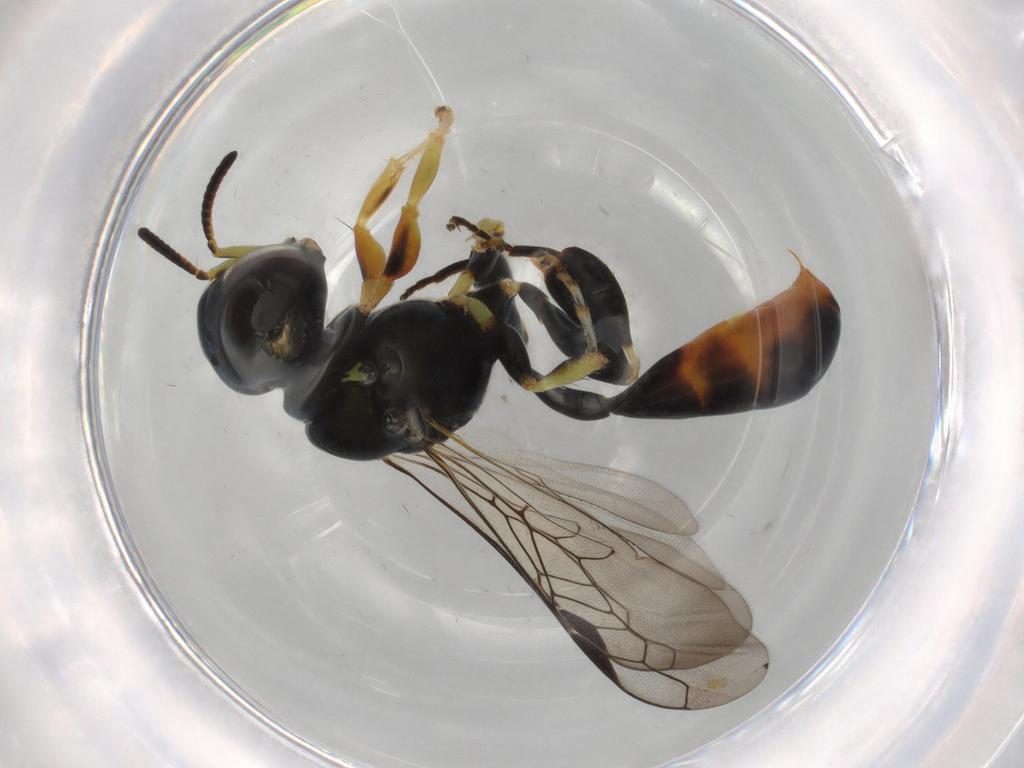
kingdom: Animalia
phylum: Arthropoda
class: Insecta
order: Hymenoptera
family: Crabronidae
